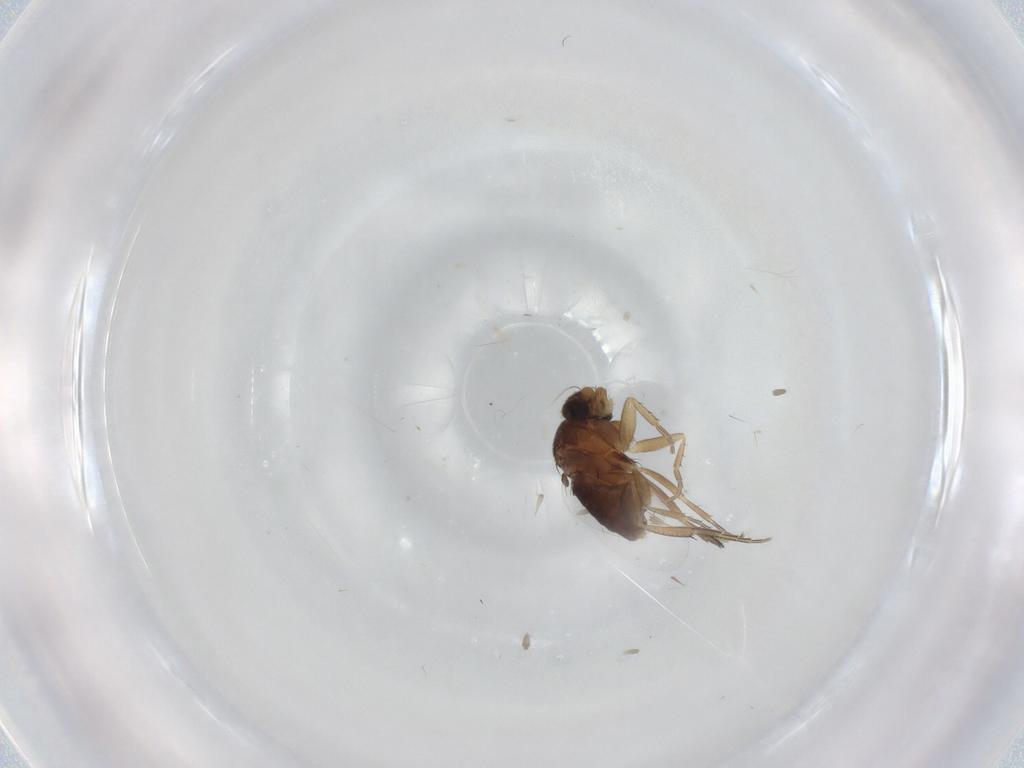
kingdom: Animalia
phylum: Arthropoda
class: Insecta
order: Diptera
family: Phoridae
